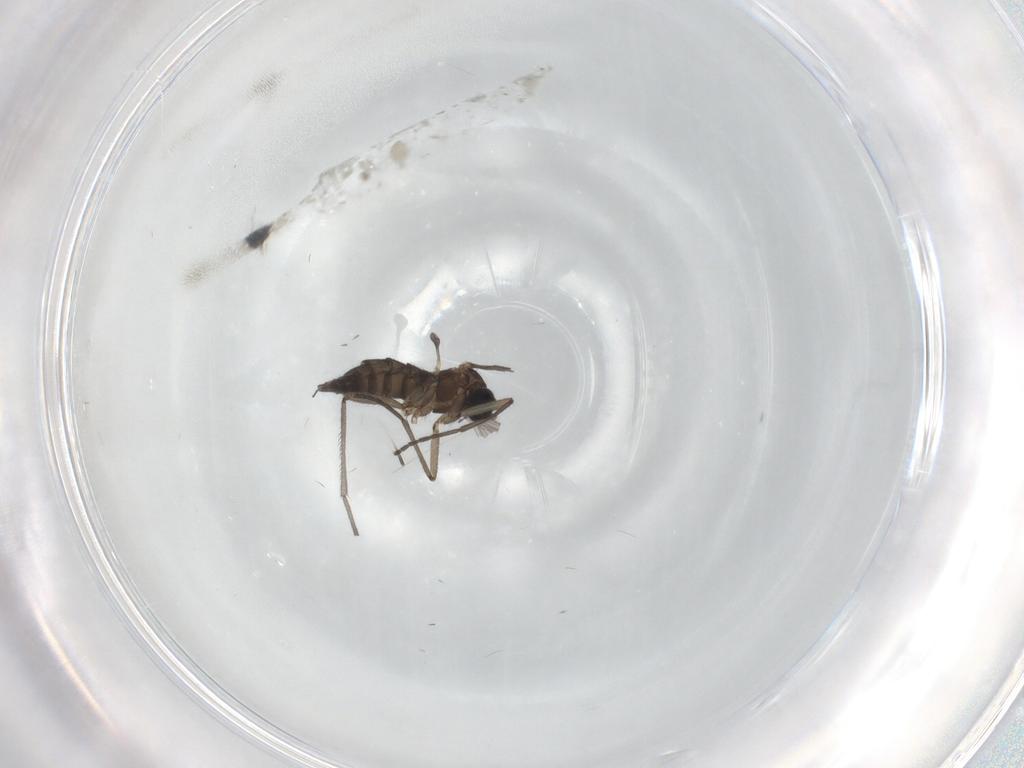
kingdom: Animalia
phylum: Arthropoda
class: Insecta
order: Diptera
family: Sciaridae
